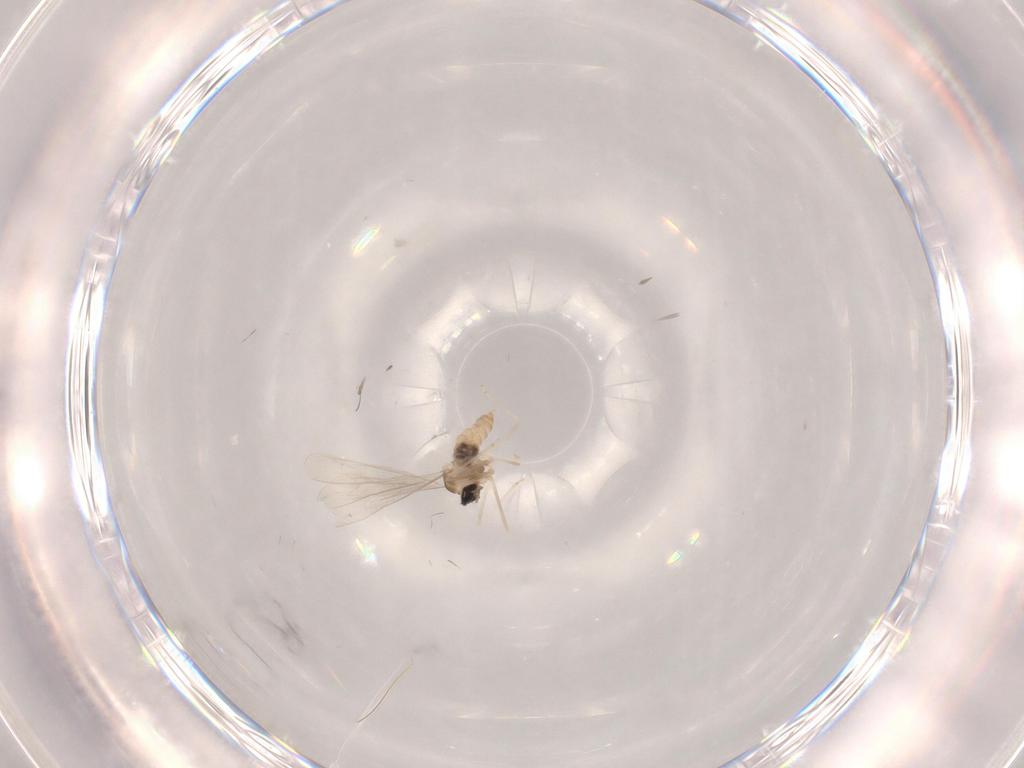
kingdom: Animalia
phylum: Arthropoda
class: Insecta
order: Diptera
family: Cecidomyiidae
